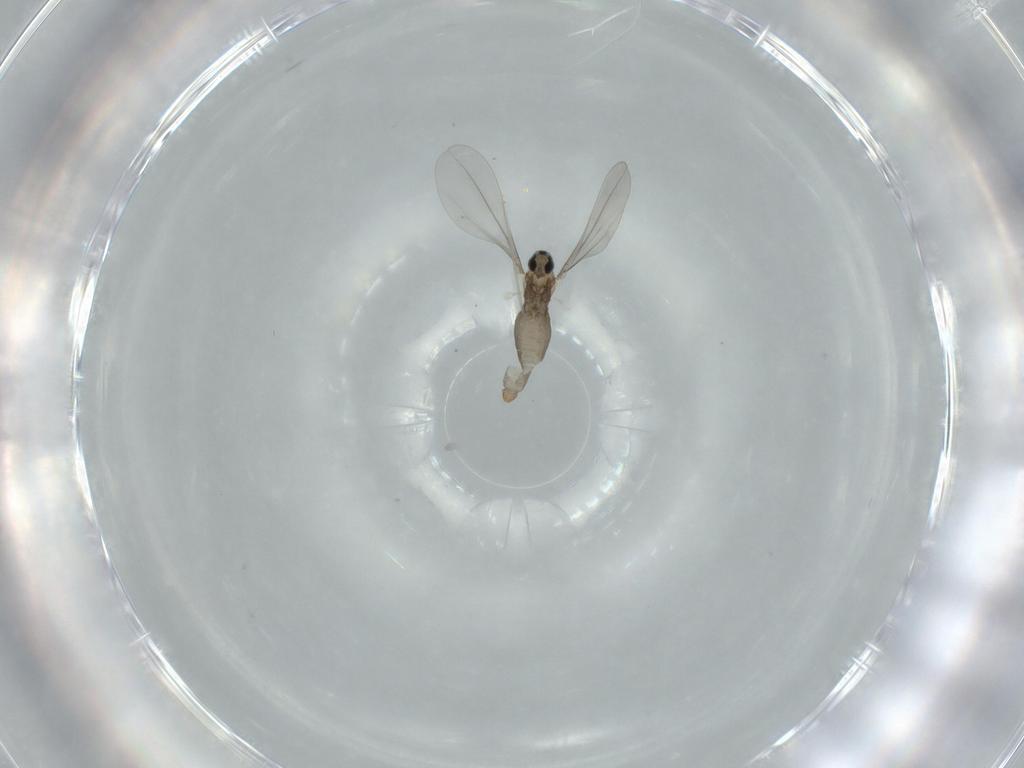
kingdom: Animalia
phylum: Arthropoda
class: Insecta
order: Diptera
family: Cecidomyiidae
